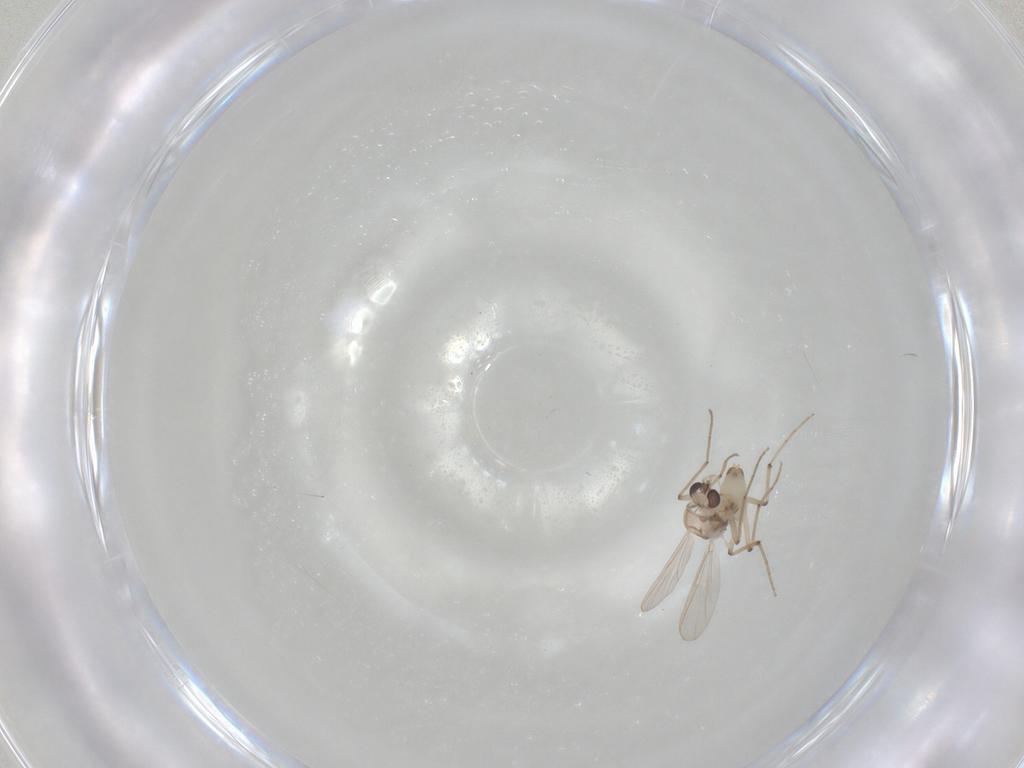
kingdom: Animalia
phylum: Arthropoda
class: Insecta
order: Diptera
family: Chironomidae
